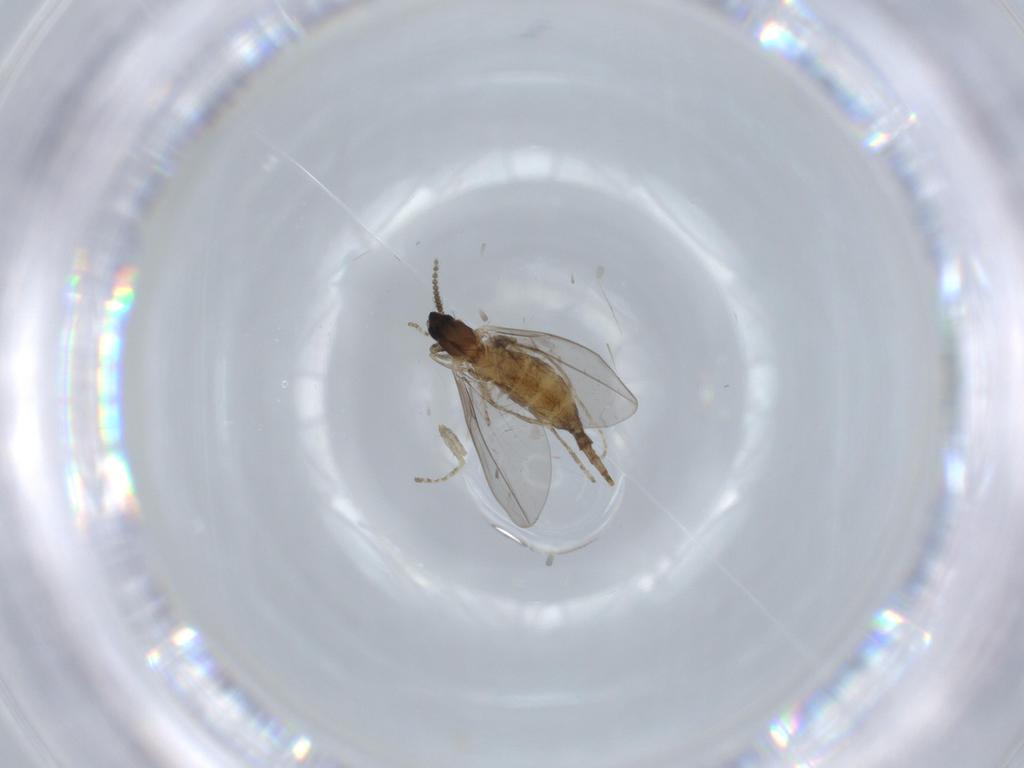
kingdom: Animalia
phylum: Arthropoda
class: Insecta
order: Diptera
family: Cecidomyiidae
